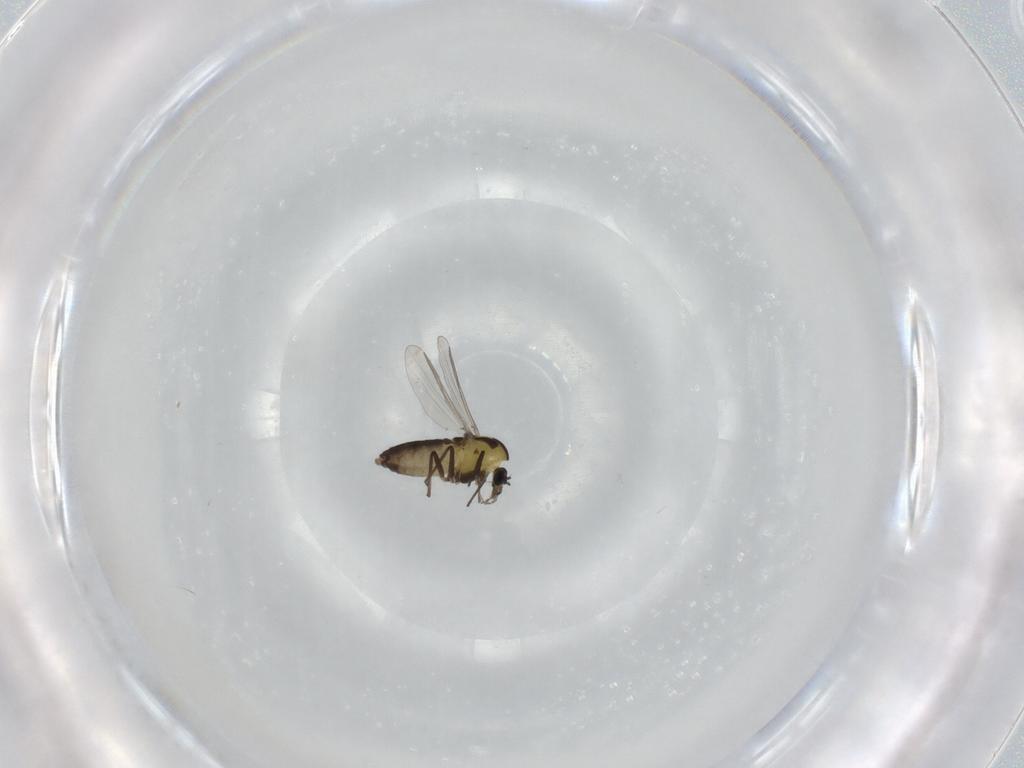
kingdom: Animalia
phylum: Arthropoda
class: Insecta
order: Diptera
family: Chironomidae
